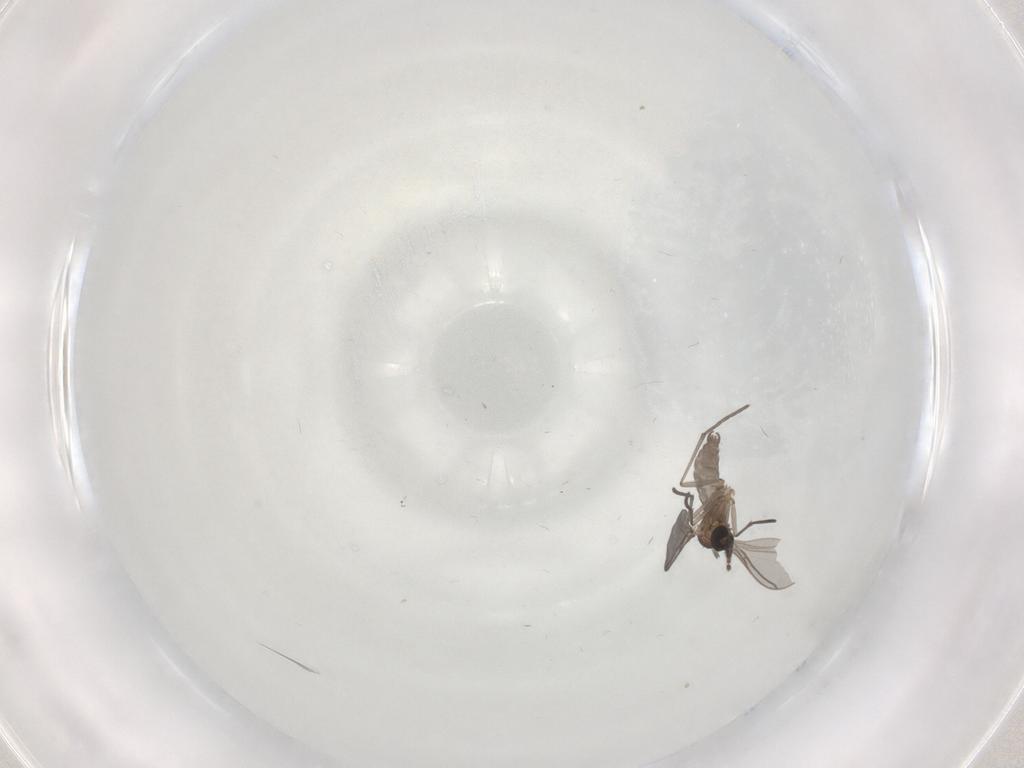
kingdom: Animalia
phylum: Arthropoda
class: Insecta
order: Diptera
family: Sciaridae
